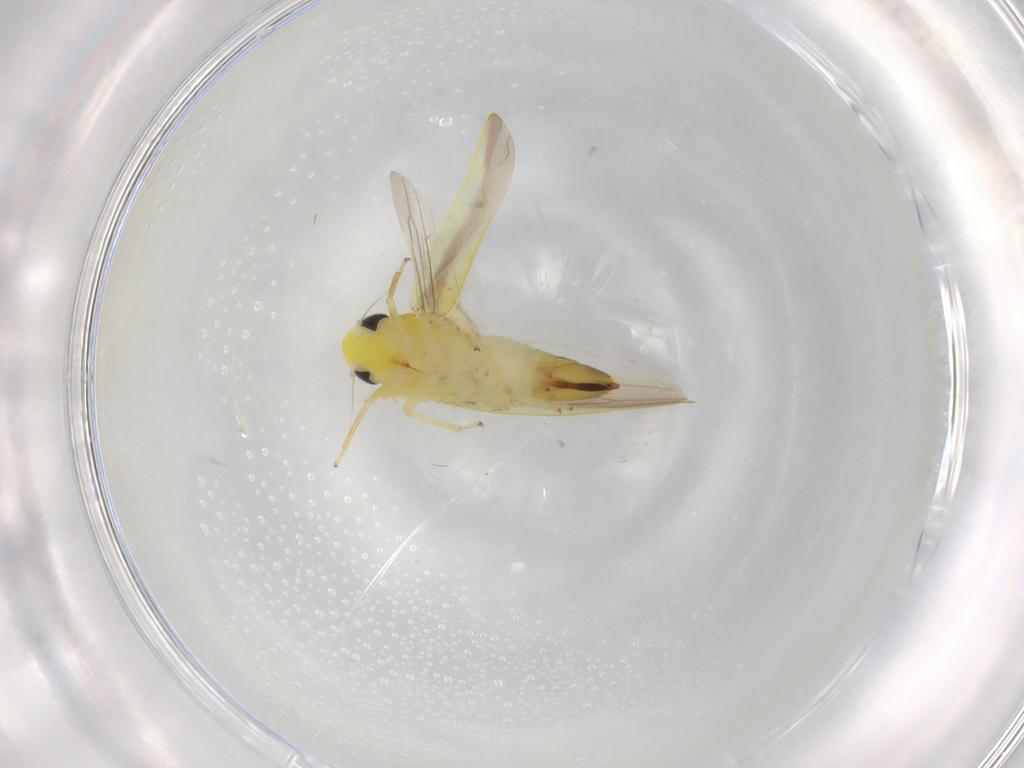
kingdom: Animalia
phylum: Arthropoda
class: Insecta
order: Hemiptera
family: Cicadellidae
